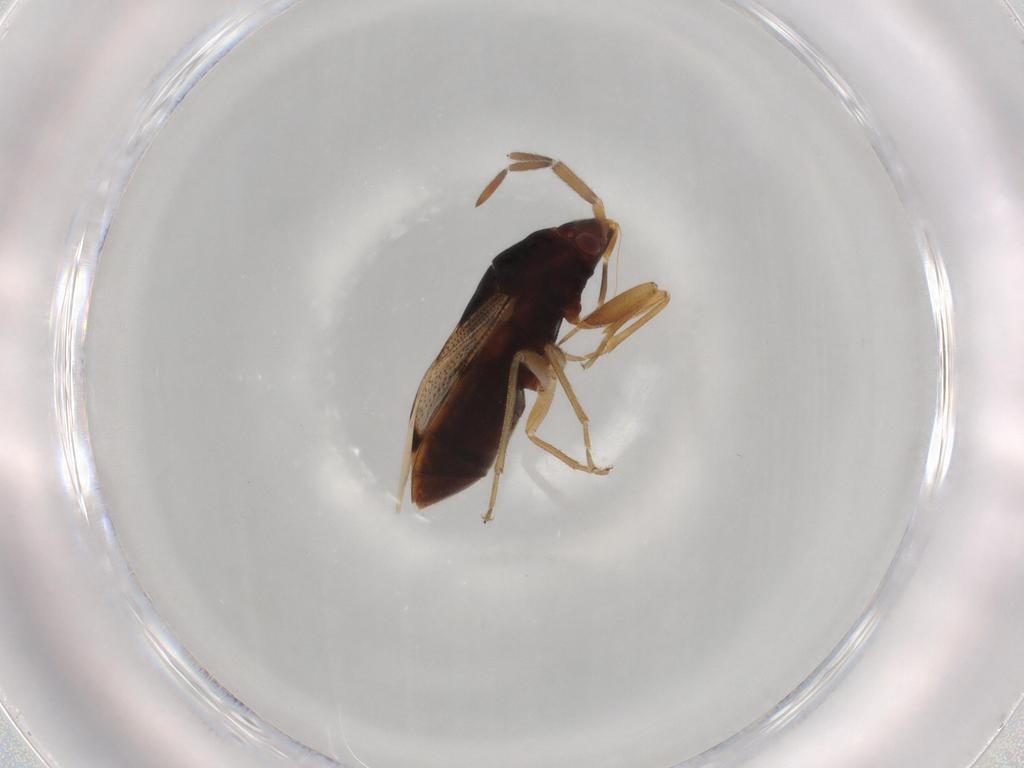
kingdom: Animalia
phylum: Arthropoda
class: Insecta
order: Hemiptera
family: Rhyparochromidae
